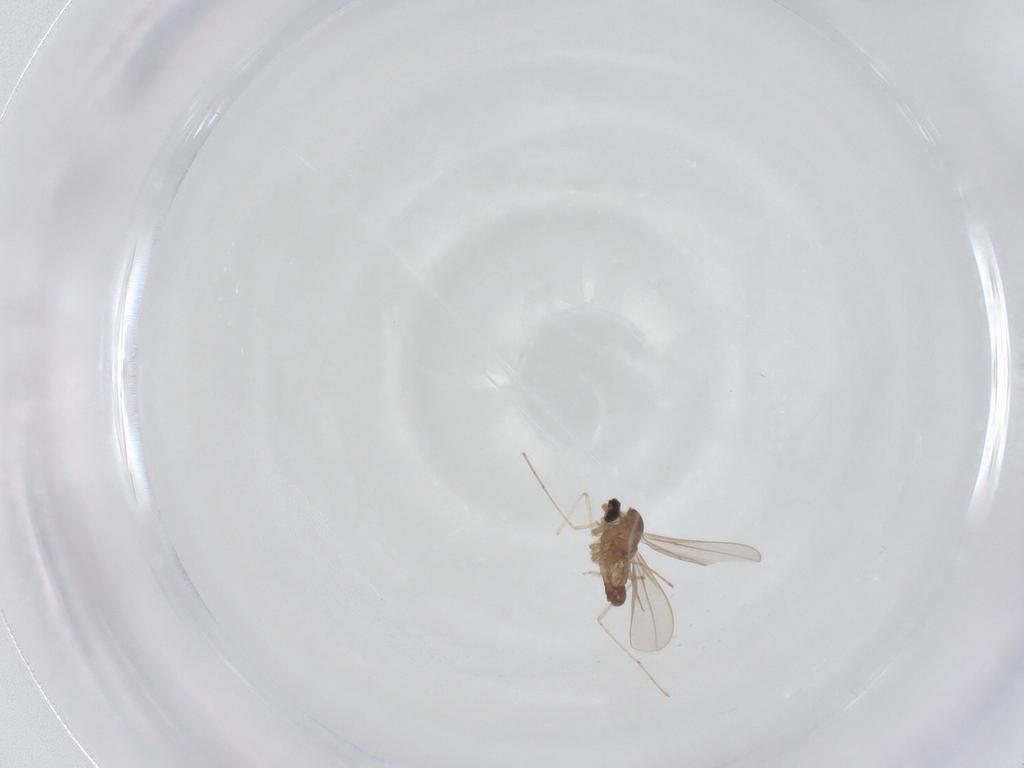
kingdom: Animalia
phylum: Arthropoda
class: Insecta
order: Diptera
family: Cecidomyiidae
